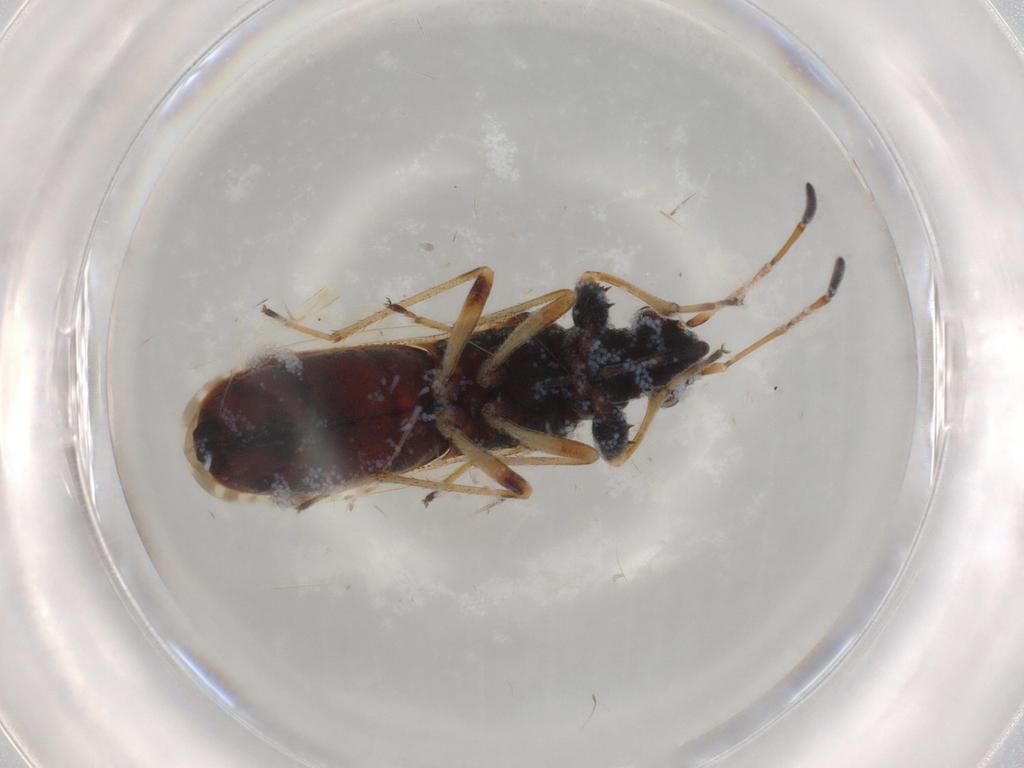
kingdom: Animalia
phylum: Arthropoda
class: Insecta
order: Hemiptera
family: Rhyparochromidae
